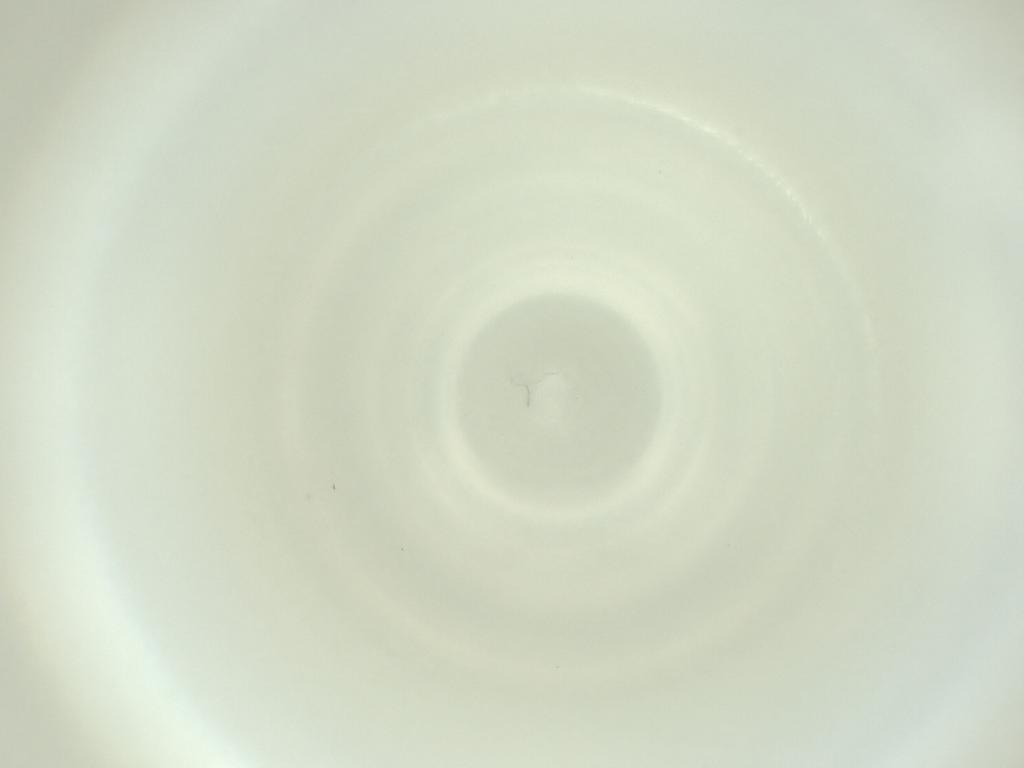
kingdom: Animalia
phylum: Arthropoda
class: Insecta
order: Diptera
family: Cecidomyiidae
